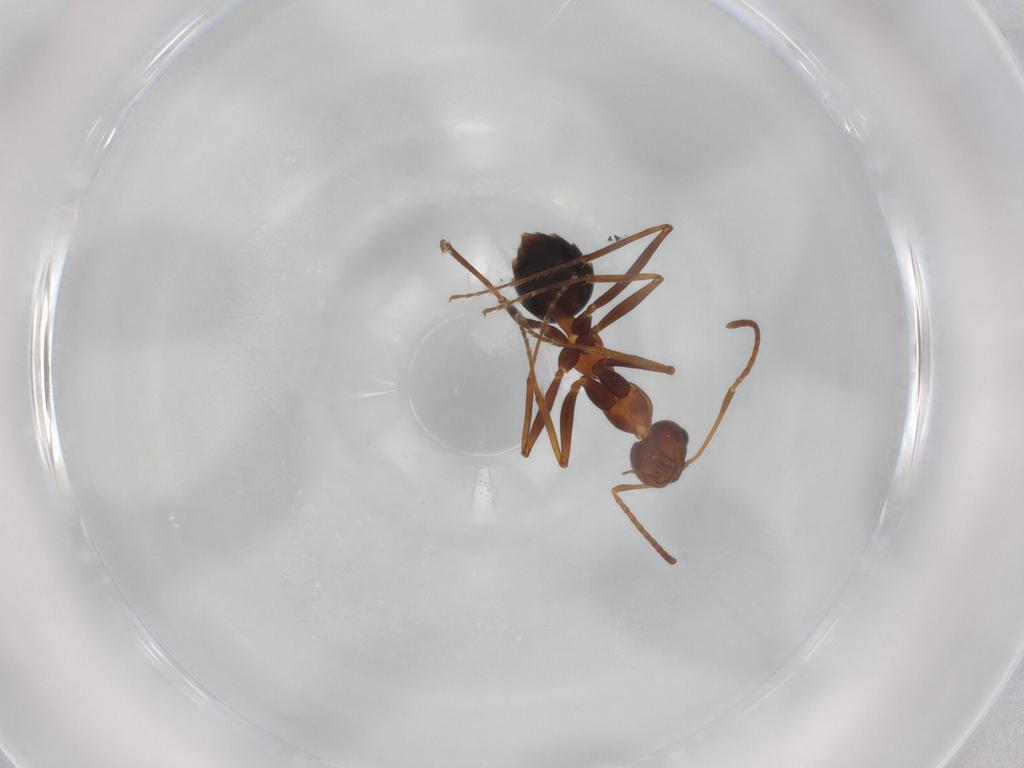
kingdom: Animalia
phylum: Arthropoda
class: Insecta
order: Hymenoptera
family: Formicidae
